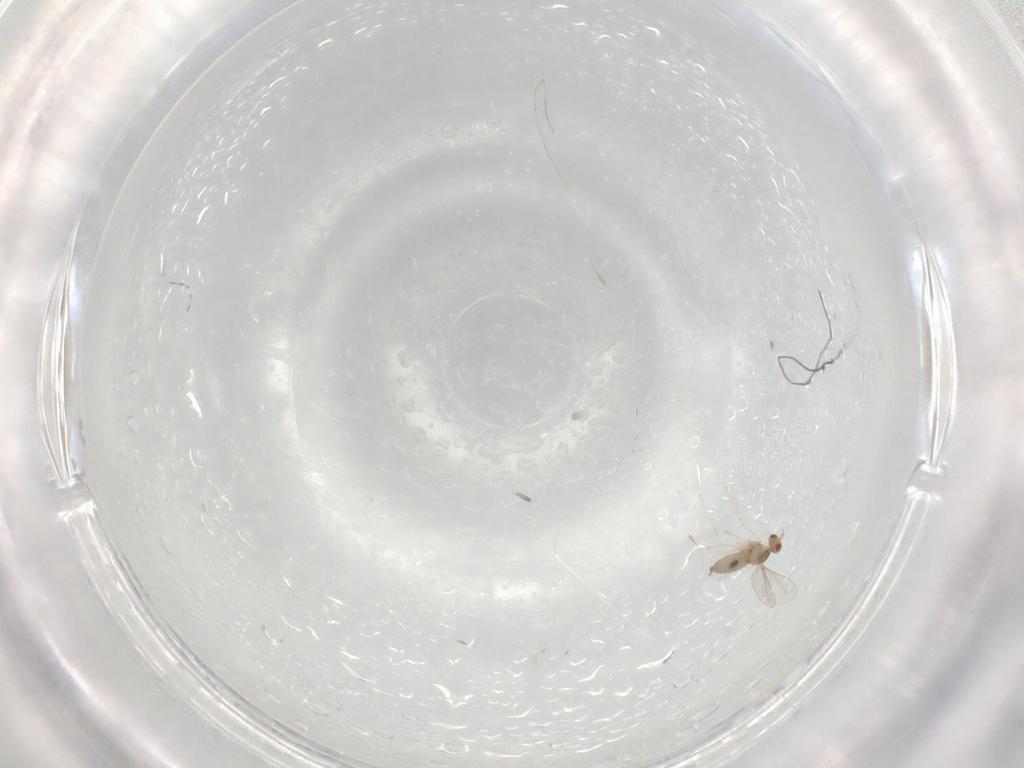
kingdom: Animalia
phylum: Arthropoda
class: Insecta
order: Diptera
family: Cecidomyiidae
